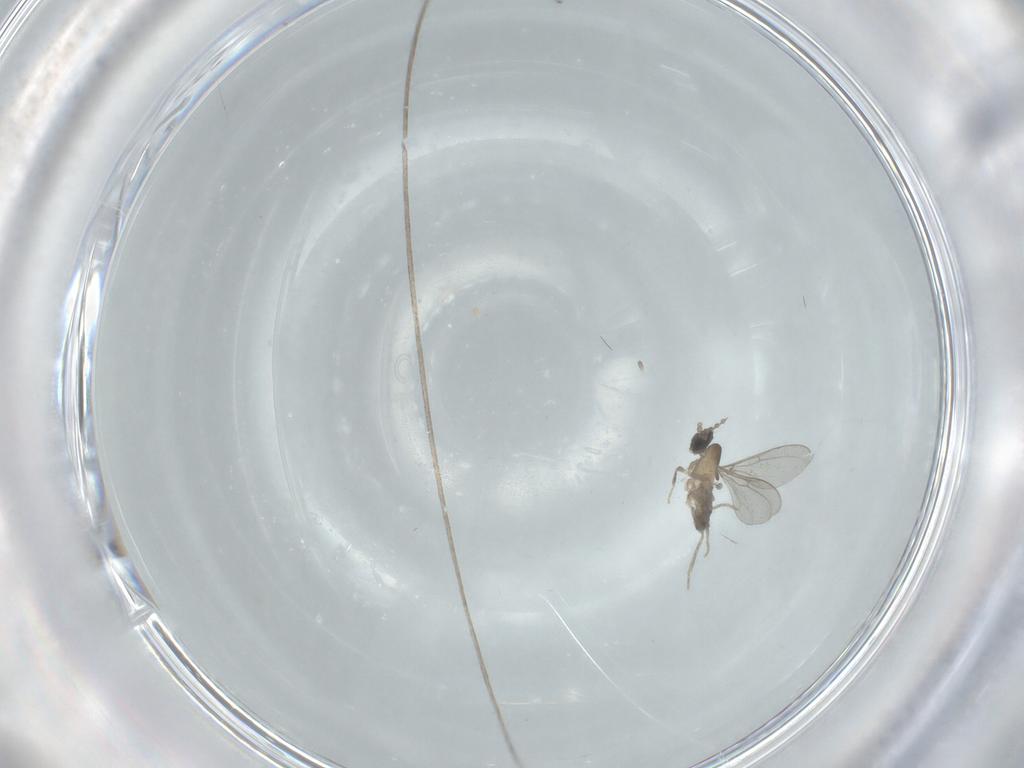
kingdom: Animalia
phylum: Arthropoda
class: Insecta
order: Diptera
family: Cecidomyiidae
